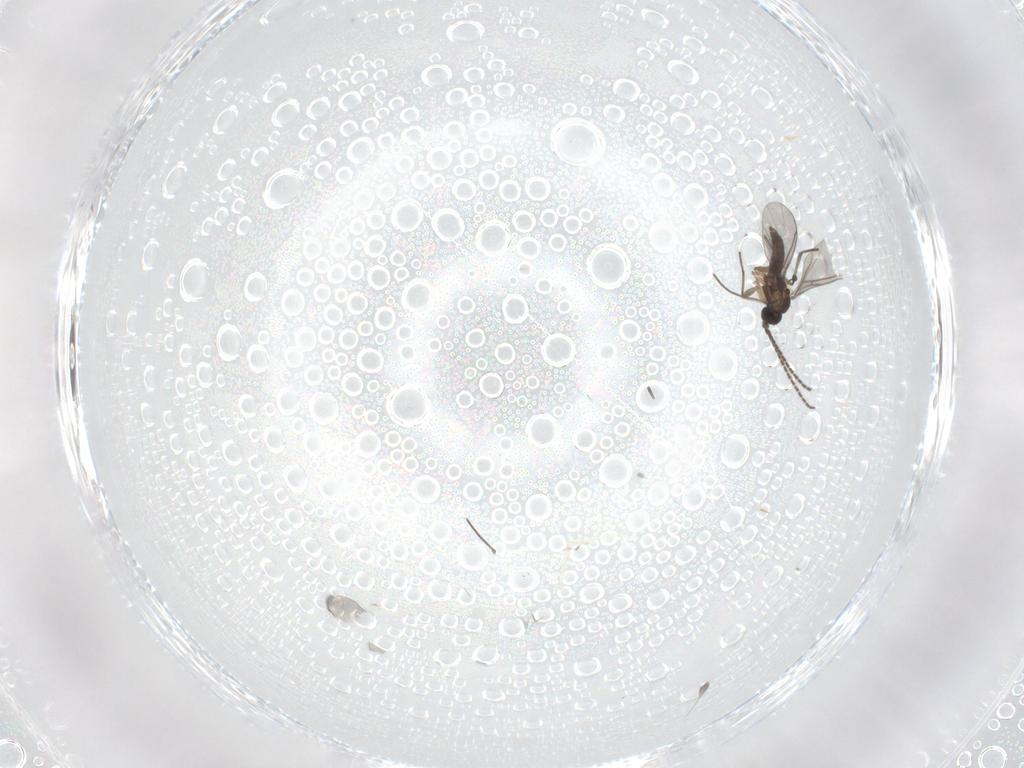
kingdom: Animalia
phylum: Arthropoda
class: Insecta
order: Diptera
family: Sciaridae
